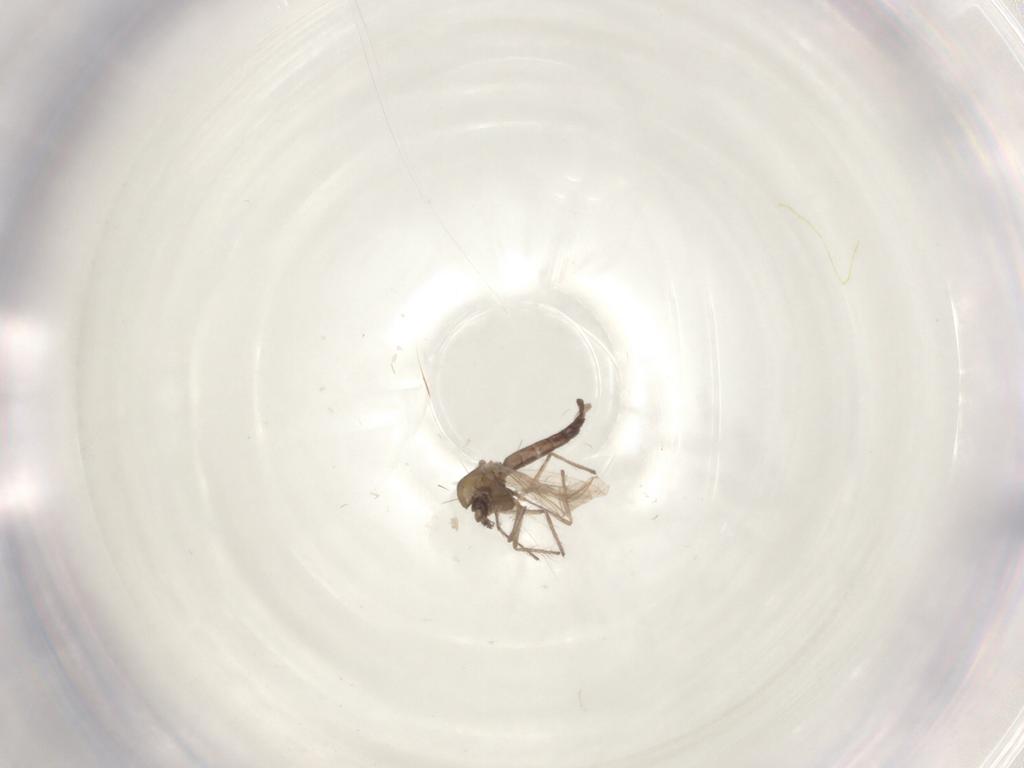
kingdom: Animalia
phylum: Arthropoda
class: Insecta
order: Diptera
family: Chironomidae
